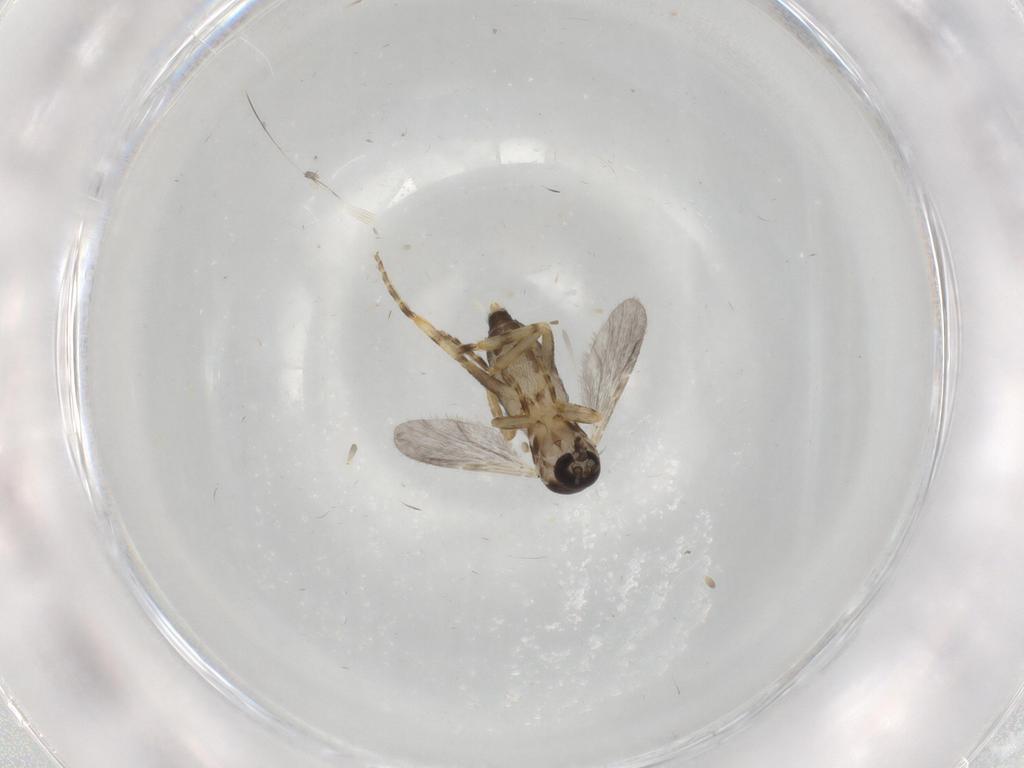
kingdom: Animalia
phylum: Arthropoda
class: Insecta
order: Diptera
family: Ceratopogonidae
